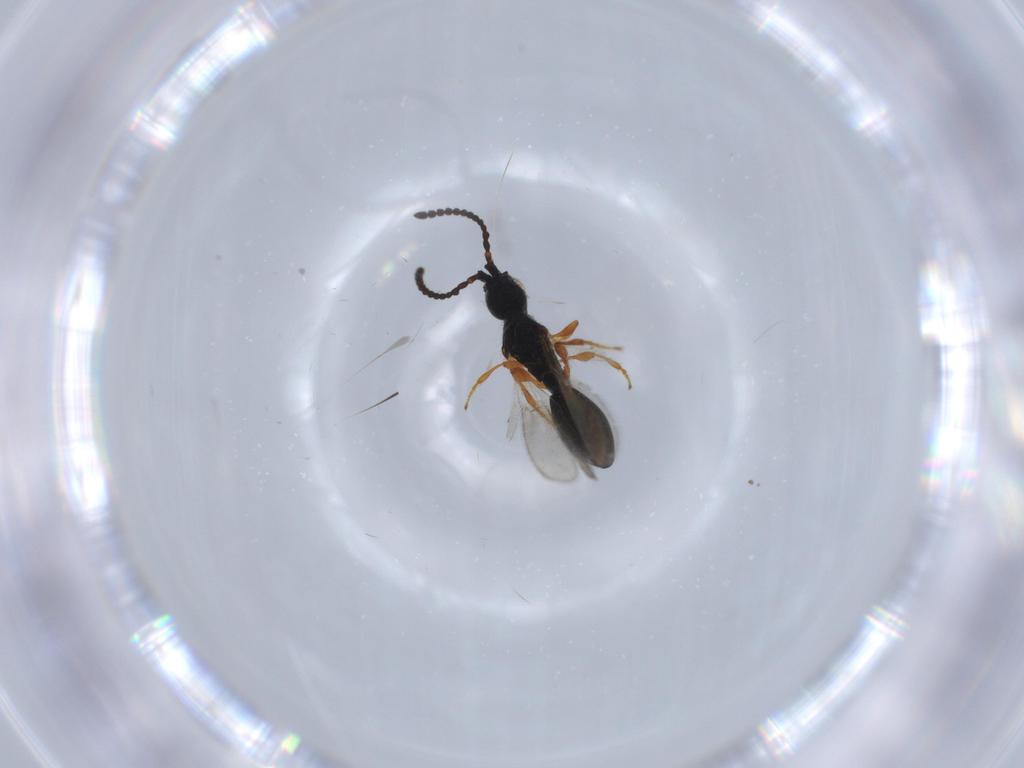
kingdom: Animalia
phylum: Arthropoda
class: Insecta
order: Hymenoptera
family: Diapriidae
